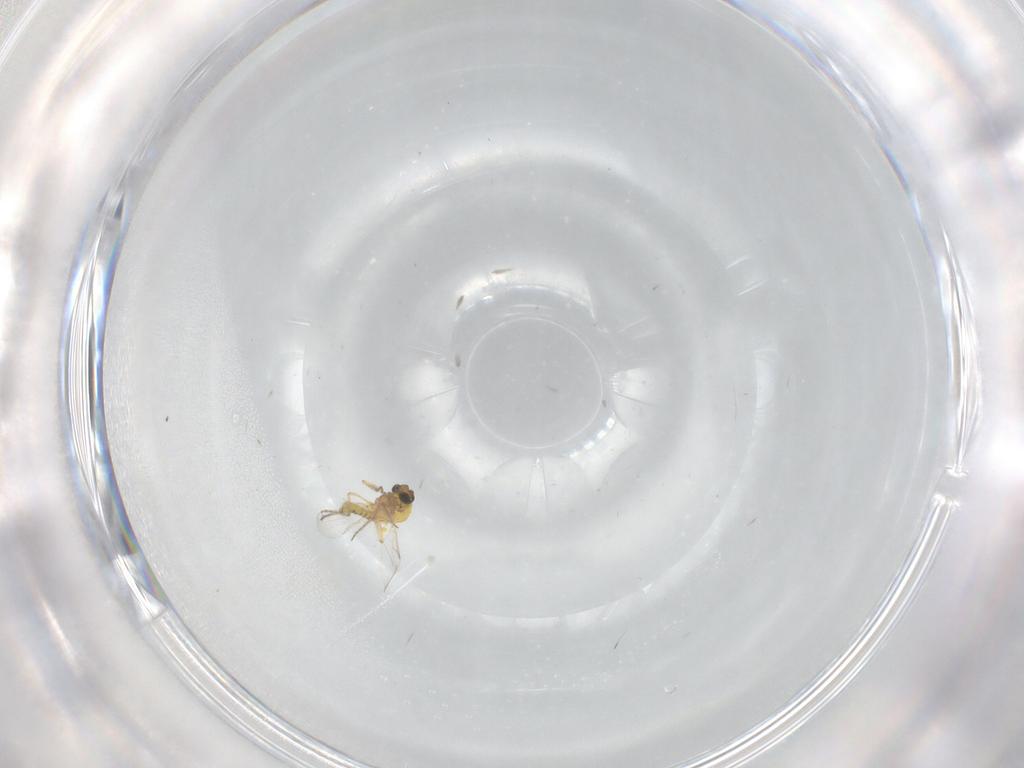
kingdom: Animalia
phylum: Arthropoda
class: Insecta
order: Diptera
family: Ceratopogonidae
